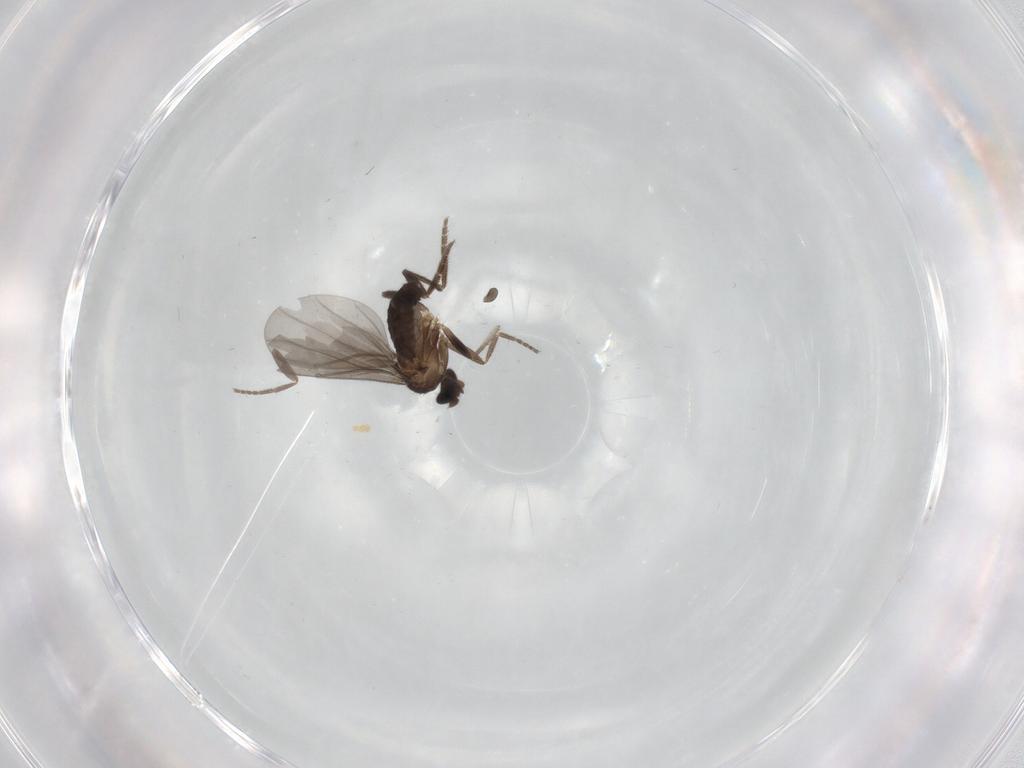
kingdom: Animalia
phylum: Arthropoda
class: Insecta
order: Diptera
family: Phoridae
